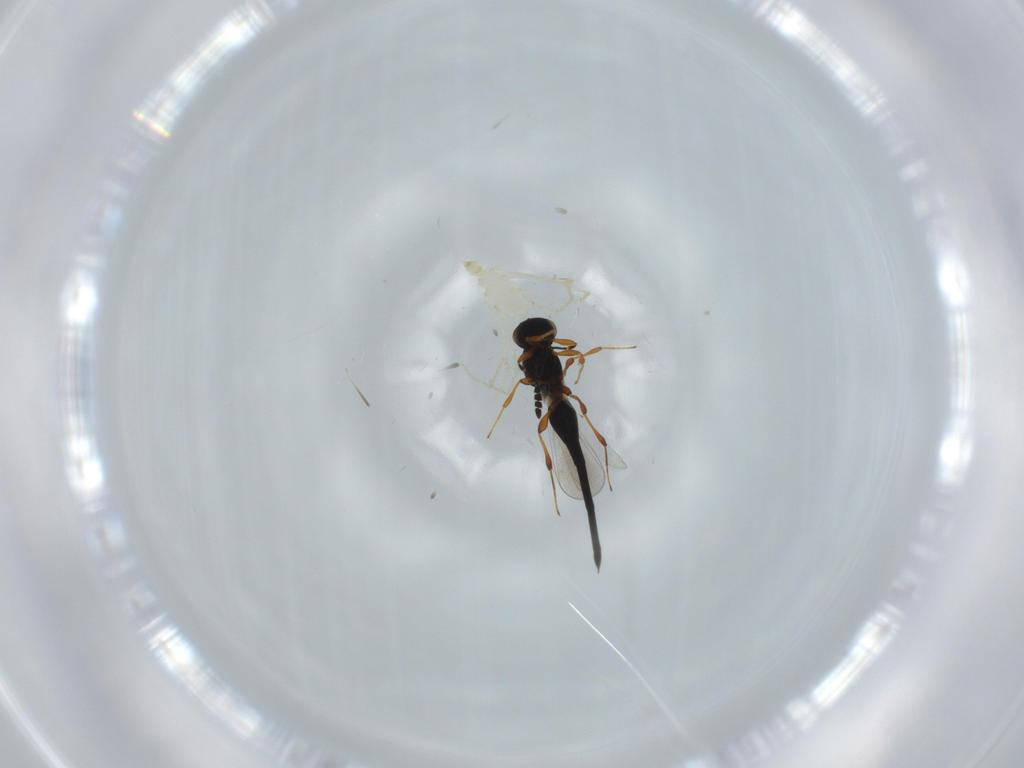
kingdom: Animalia
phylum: Arthropoda
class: Insecta
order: Hymenoptera
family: Platygastridae
